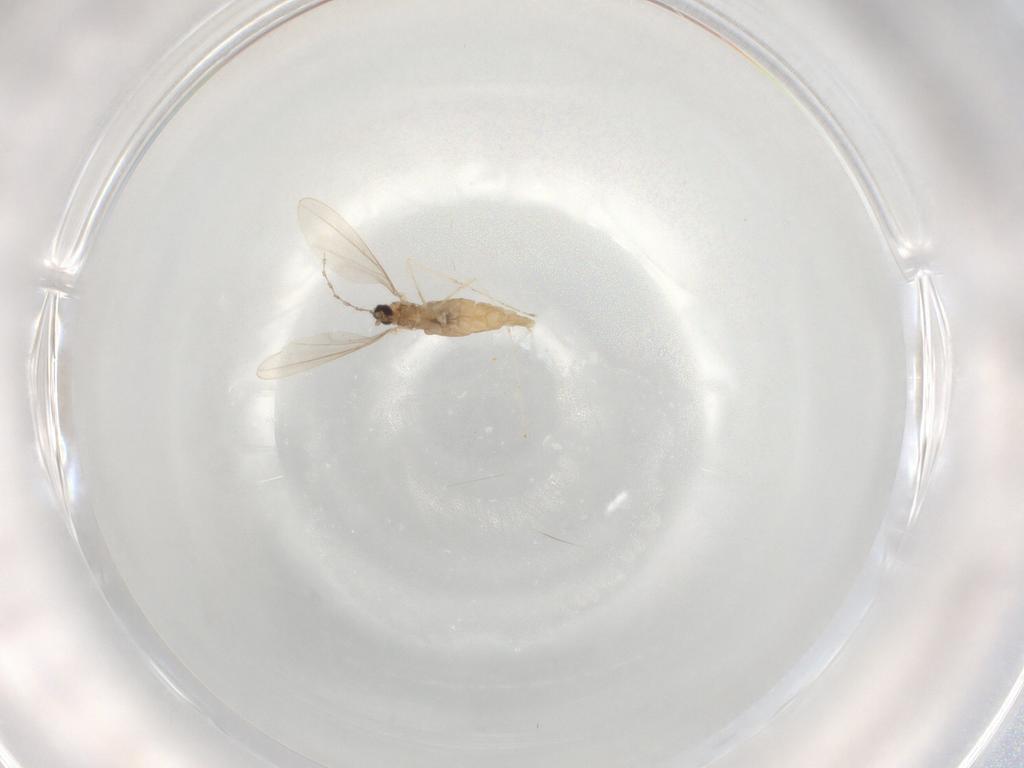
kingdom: Animalia
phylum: Arthropoda
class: Insecta
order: Diptera
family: Cecidomyiidae
